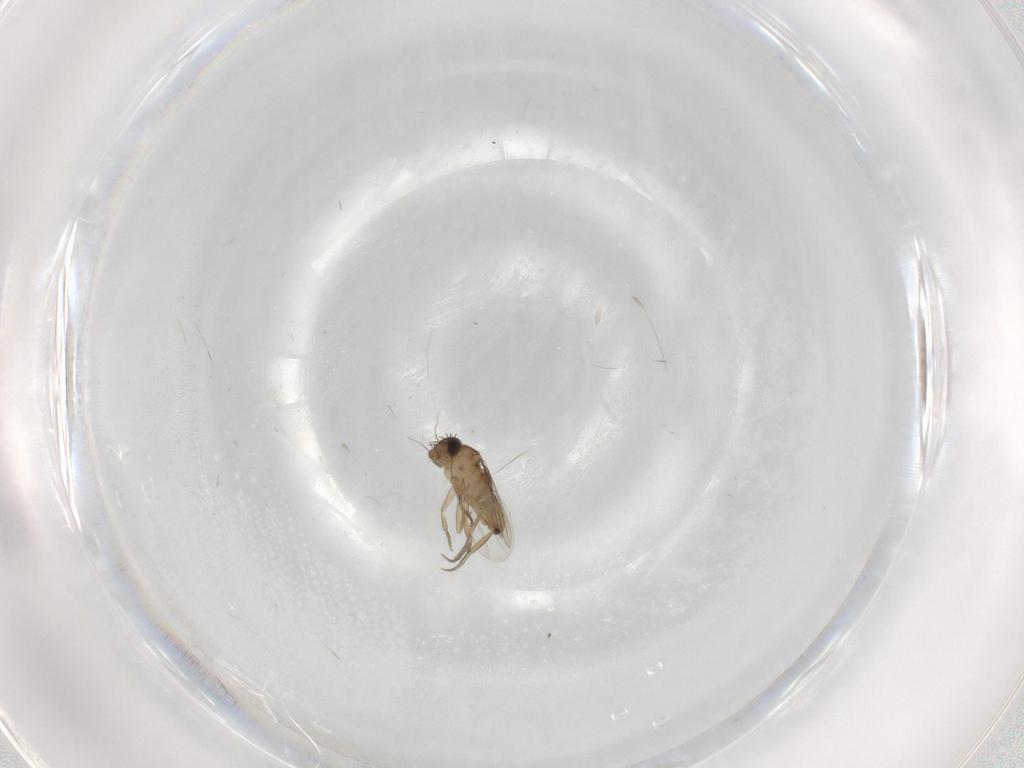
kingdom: Animalia
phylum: Arthropoda
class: Insecta
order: Diptera
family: Phoridae
